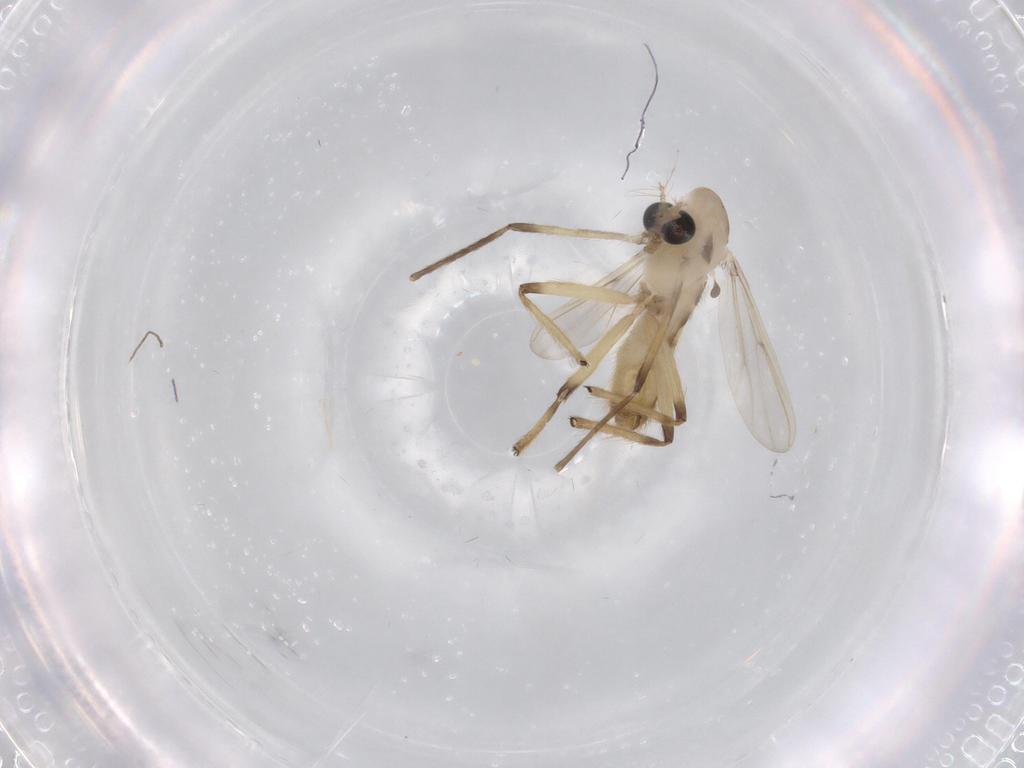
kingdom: Animalia
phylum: Arthropoda
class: Insecta
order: Diptera
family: Chironomidae
